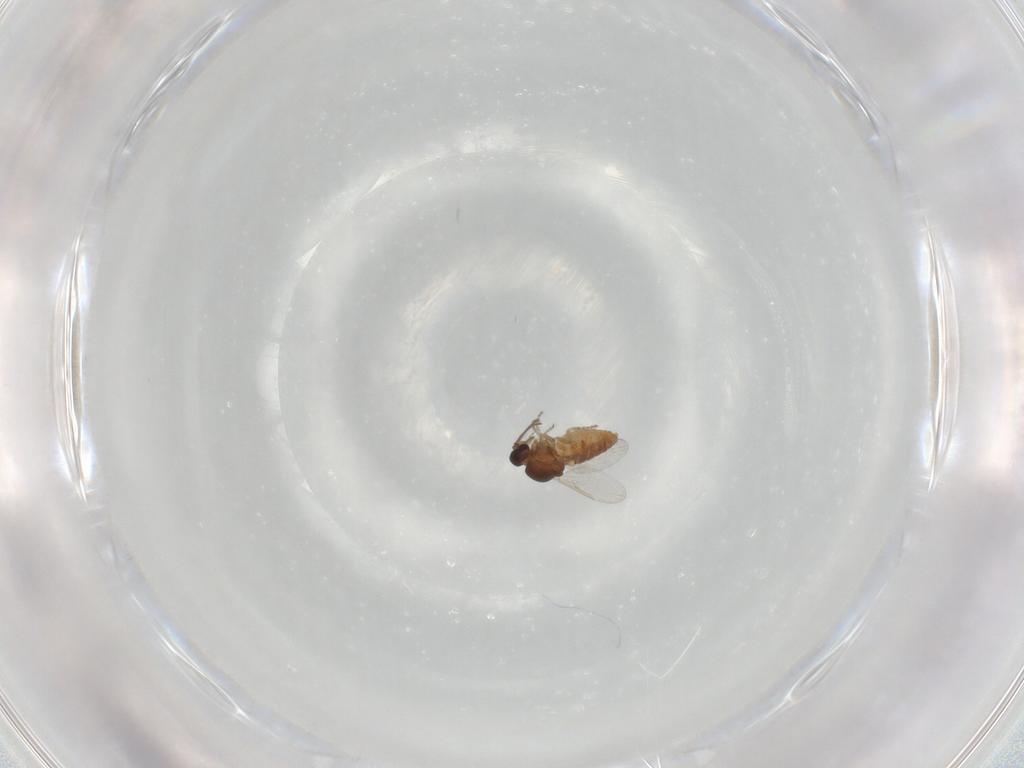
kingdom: Animalia
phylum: Arthropoda
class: Insecta
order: Diptera
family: Ceratopogonidae
